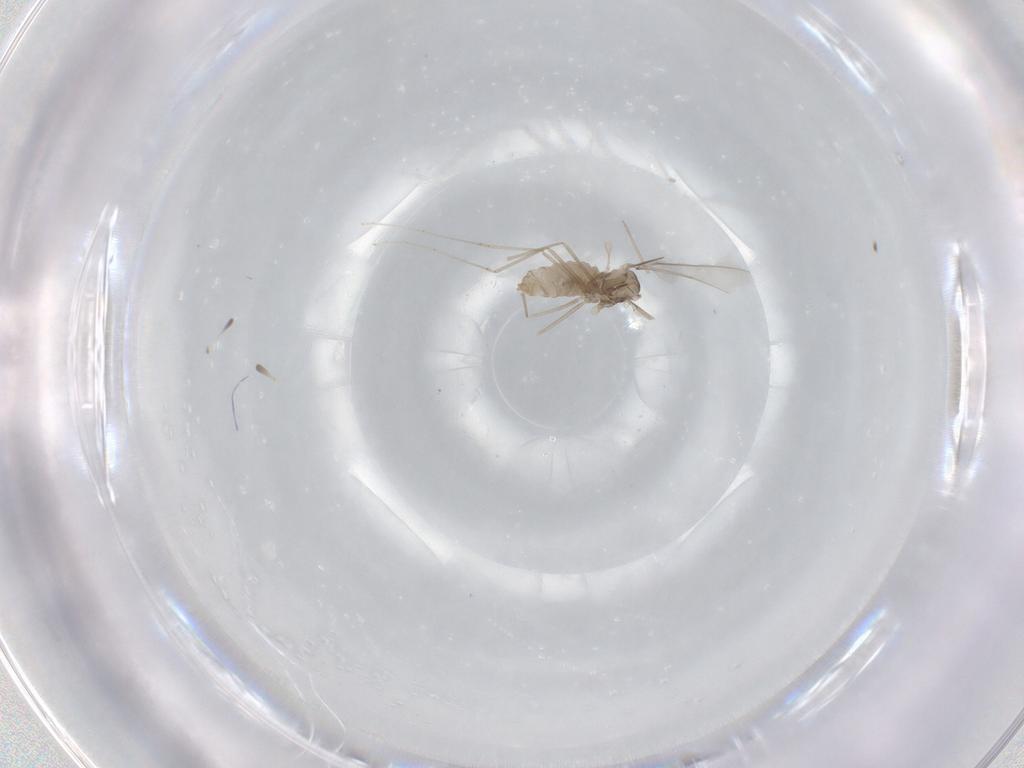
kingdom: Animalia
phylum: Arthropoda
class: Insecta
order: Diptera
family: Cecidomyiidae
